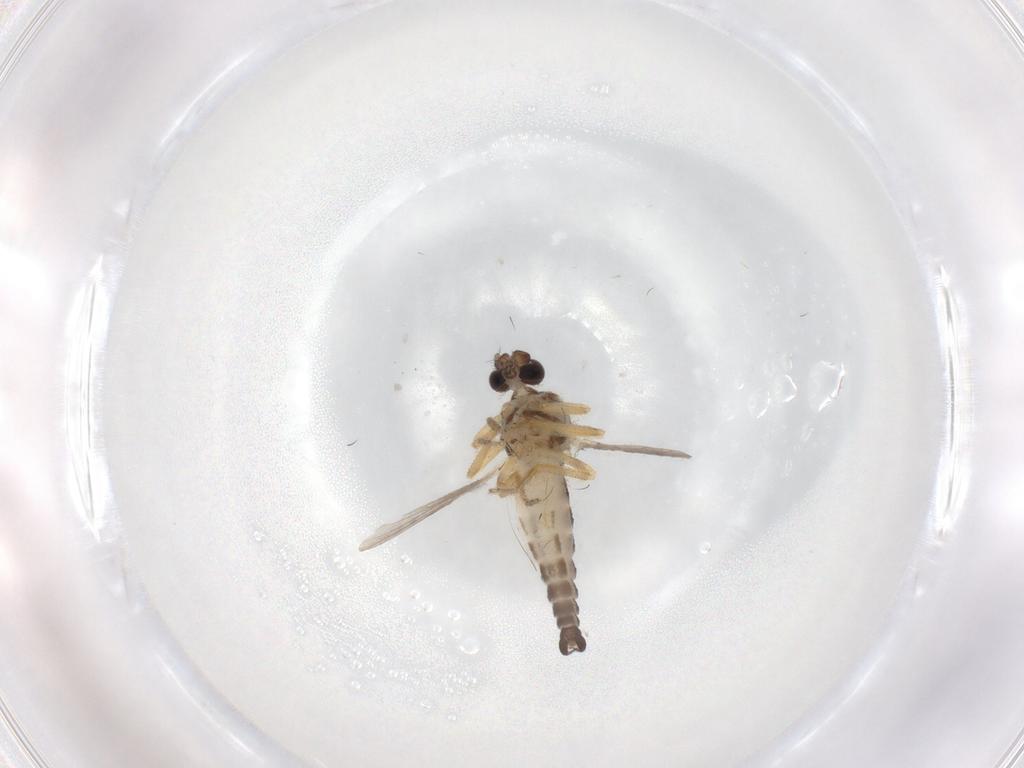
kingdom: Animalia
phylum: Arthropoda
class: Insecta
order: Diptera
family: Ceratopogonidae
